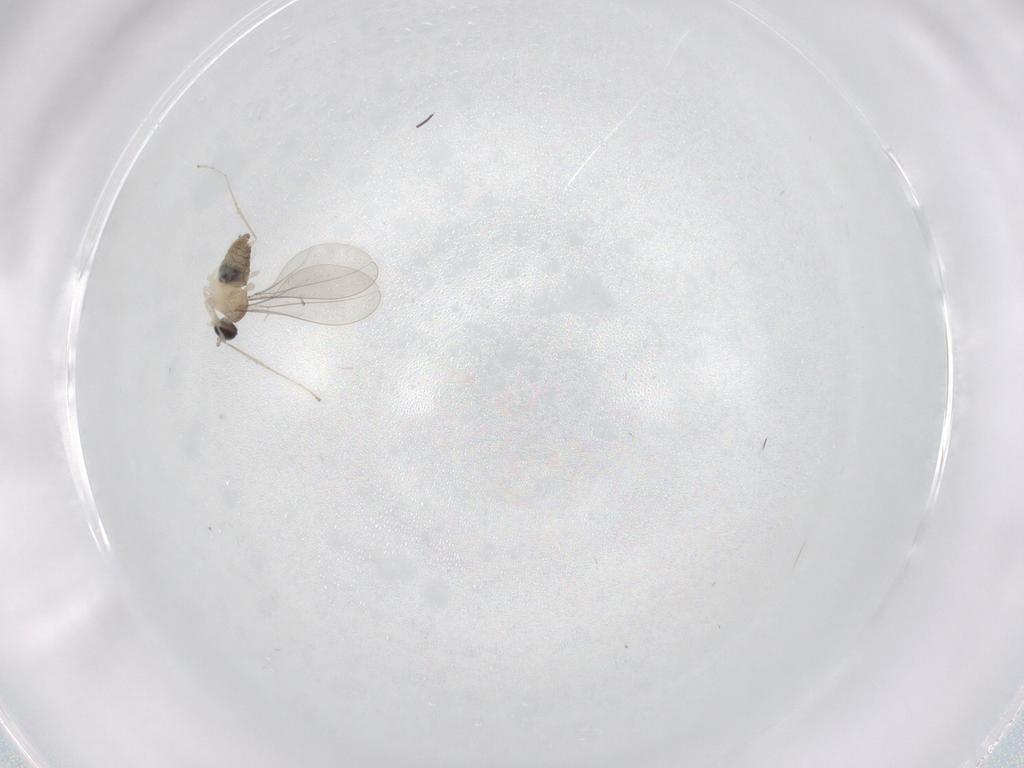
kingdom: Animalia
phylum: Arthropoda
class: Insecta
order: Diptera
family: Cecidomyiidae
